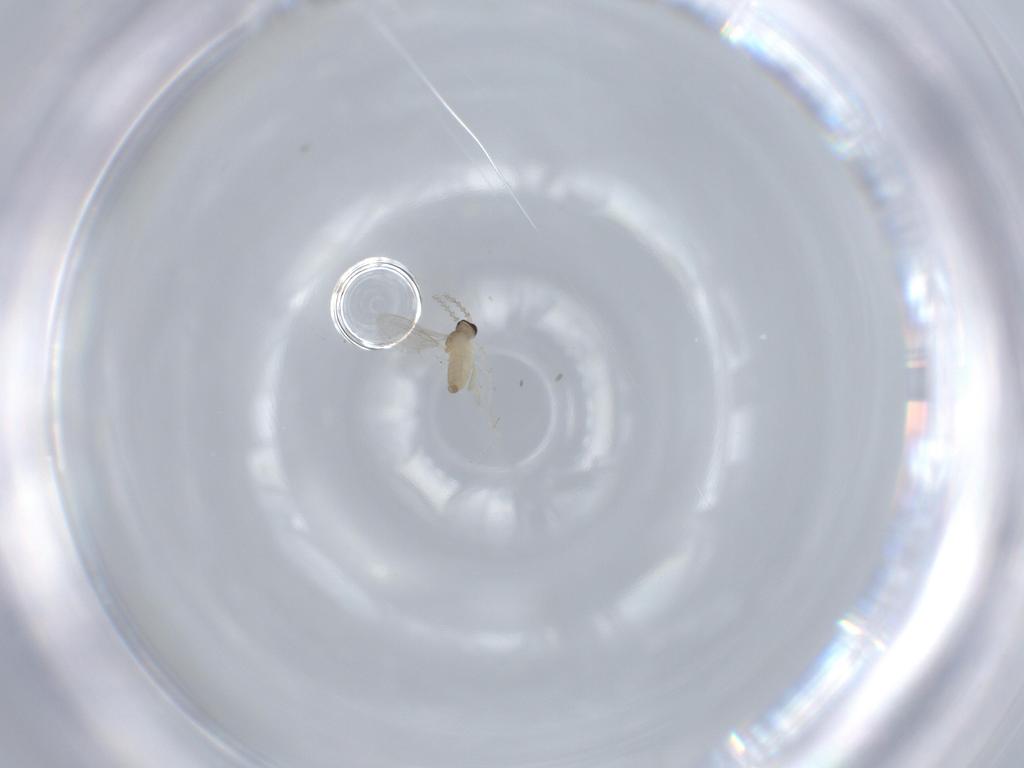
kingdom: Animalia
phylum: Arthropoda
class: Insecta
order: Diptera
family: Cecidomyiidae
